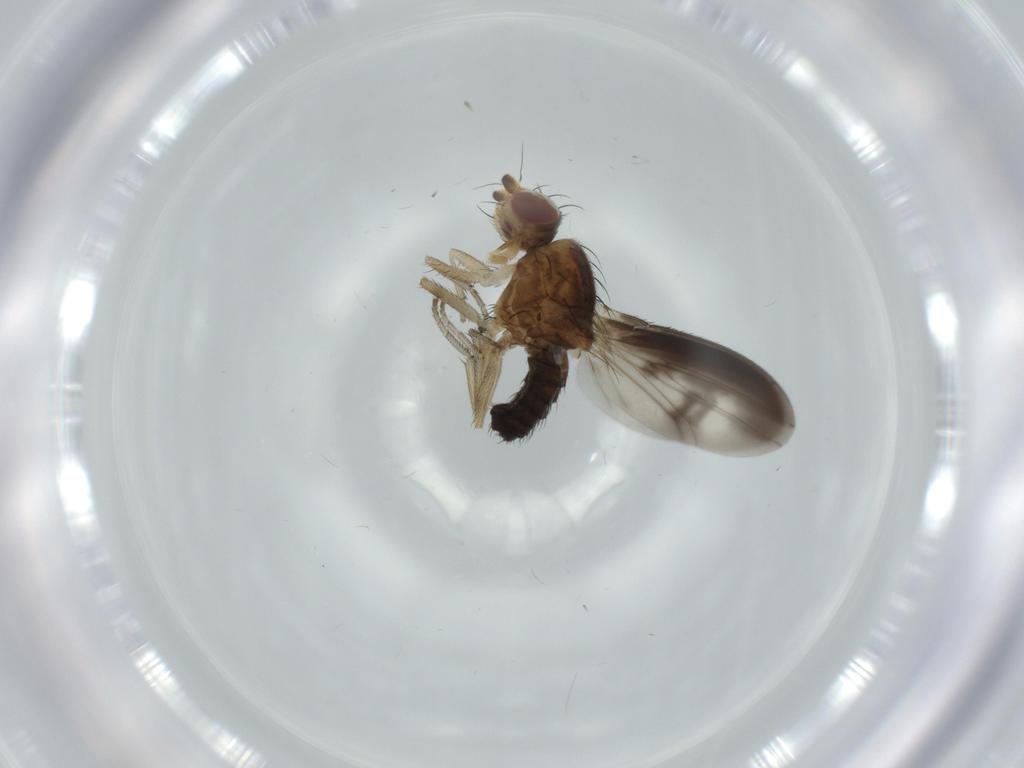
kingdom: Animalia
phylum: Arthropoda
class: Insecta
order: Diptera
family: Heleomyzidae
